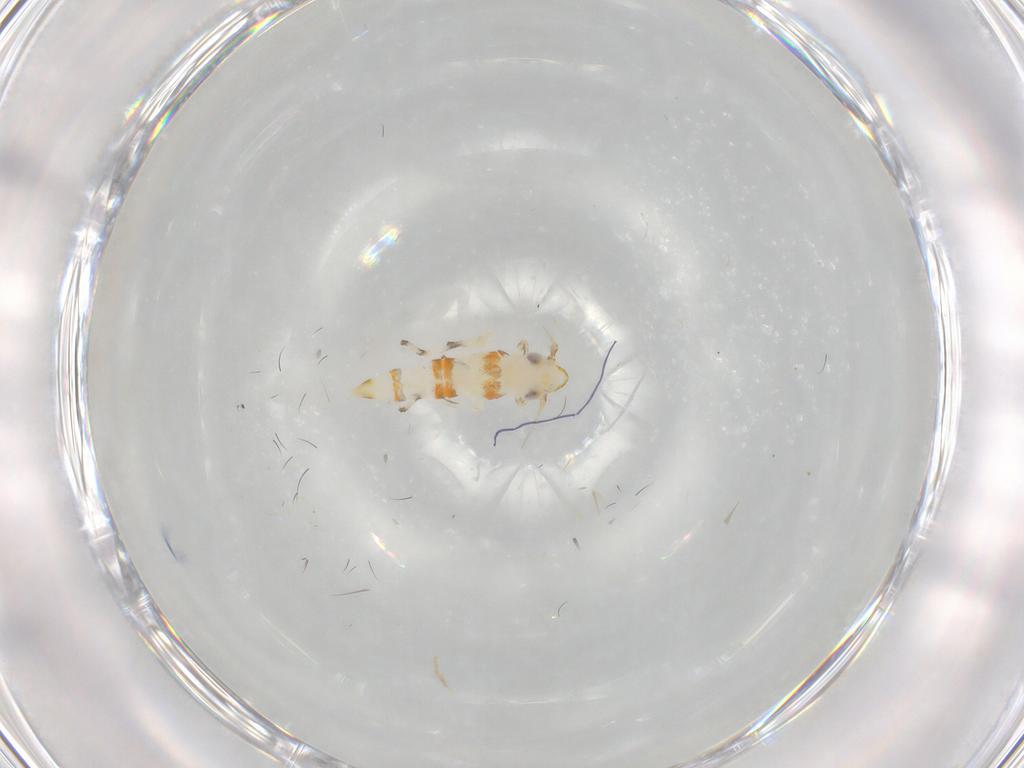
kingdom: Animalia
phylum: Arthropoda
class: Insecta
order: Hemiptera
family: Cicadellidae
